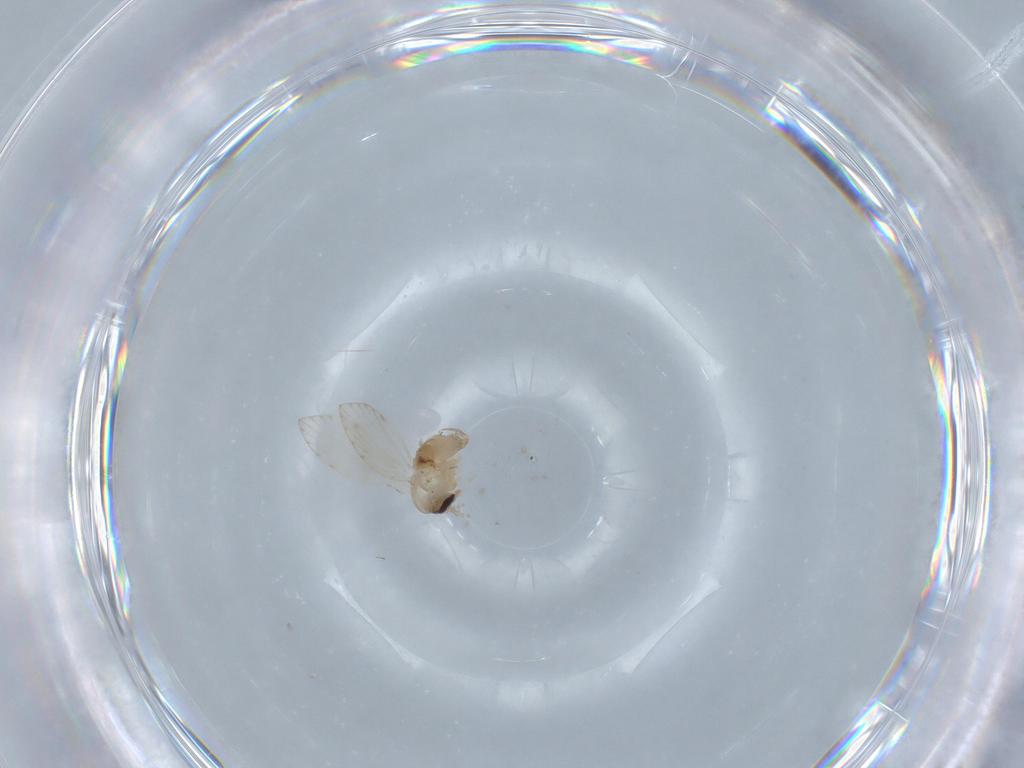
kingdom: Animalia
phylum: Arthropoda
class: Insecta
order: Diptera
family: Psychodidae
